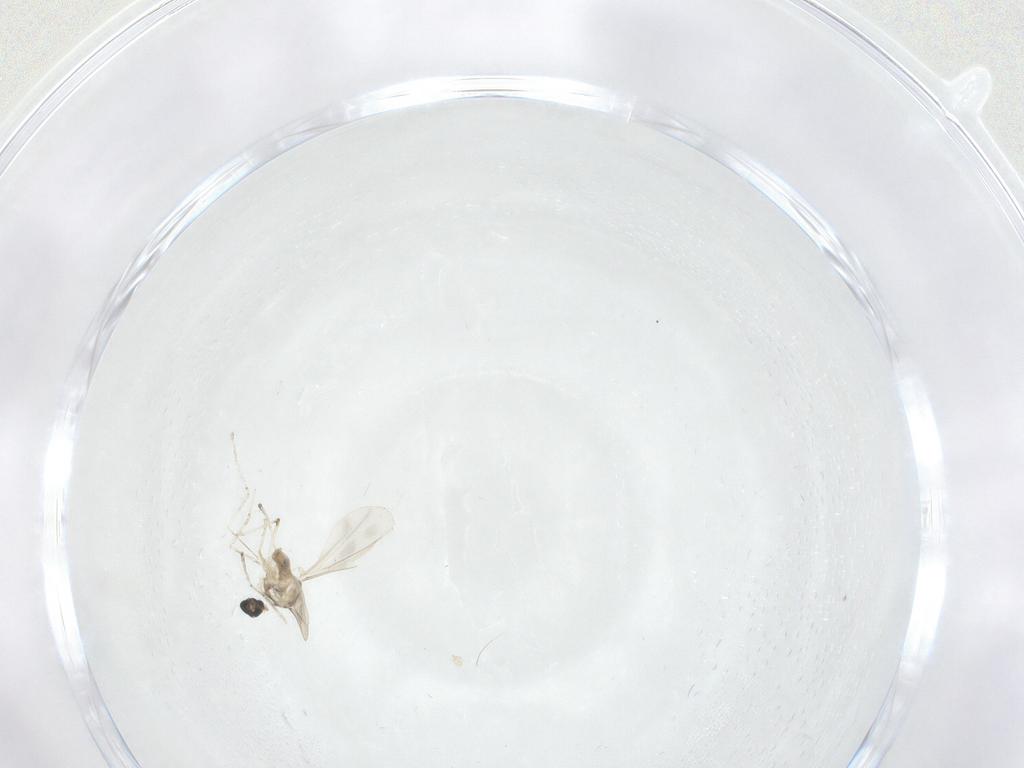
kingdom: Animalia
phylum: Arthropoda
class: Insecta
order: Diptera
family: Cecidomyiidae
